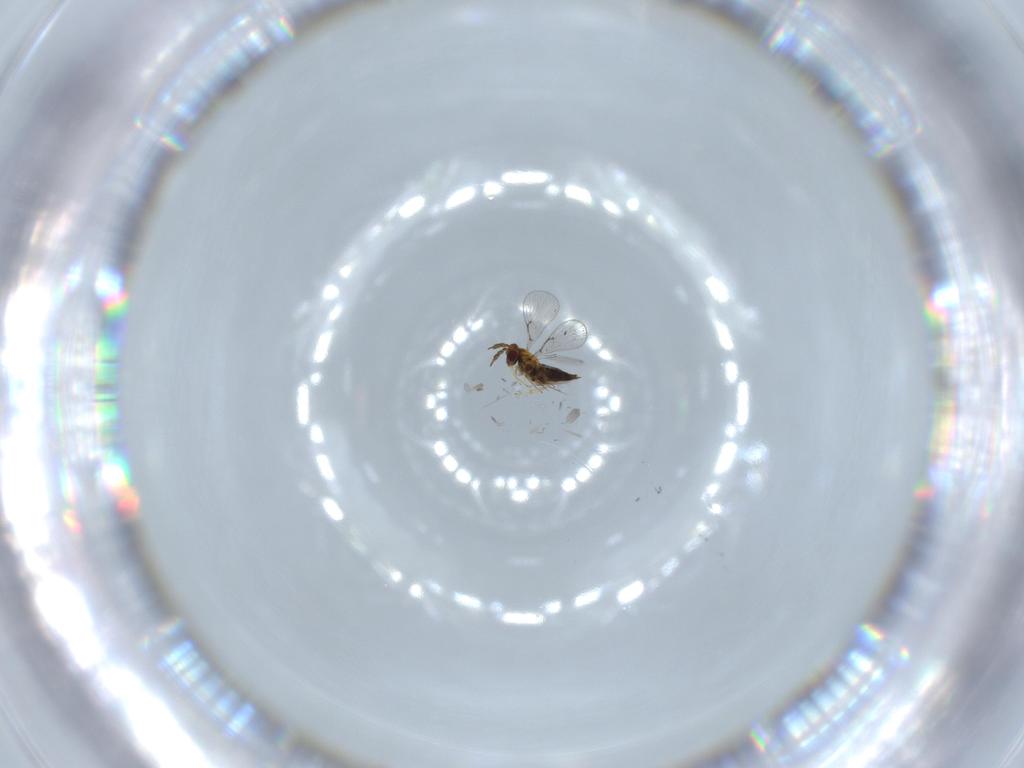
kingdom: Animalia
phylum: Arthropoda
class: Insecta
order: Hymenoptera
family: Trichogrammatidae
